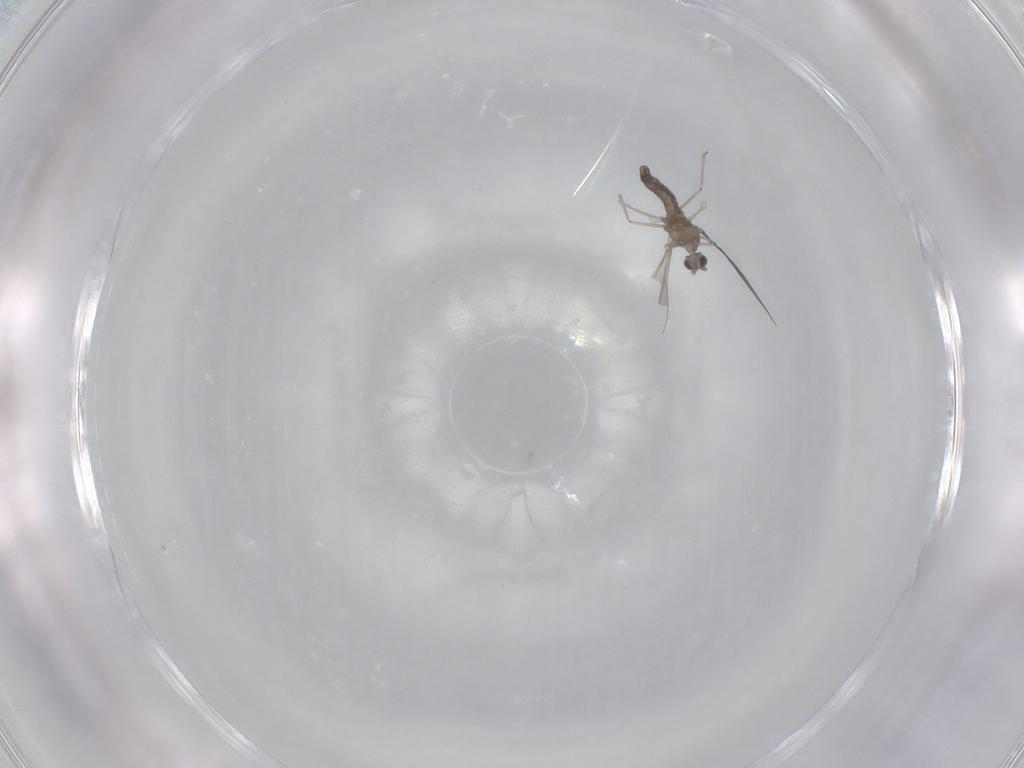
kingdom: Animalia
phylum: Arthropoda
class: Insecta
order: Diptera
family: Cecidomyiidae
